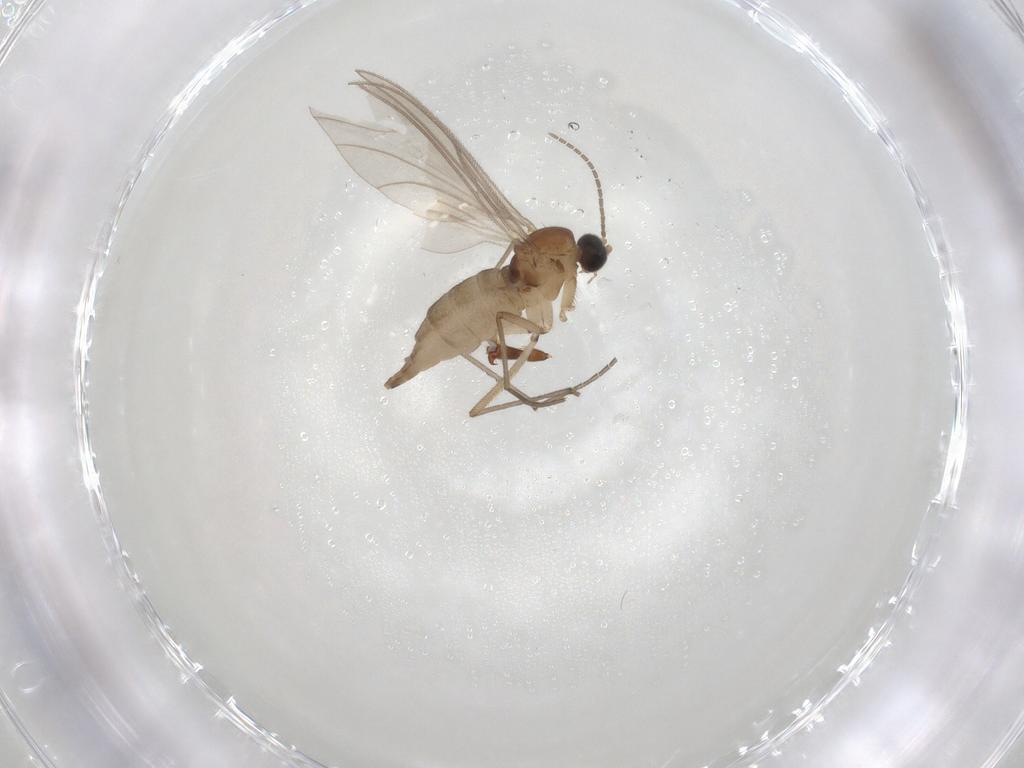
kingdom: Animalia
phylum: Arthropoda
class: Insecta
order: Diptera
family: Sciaridae
